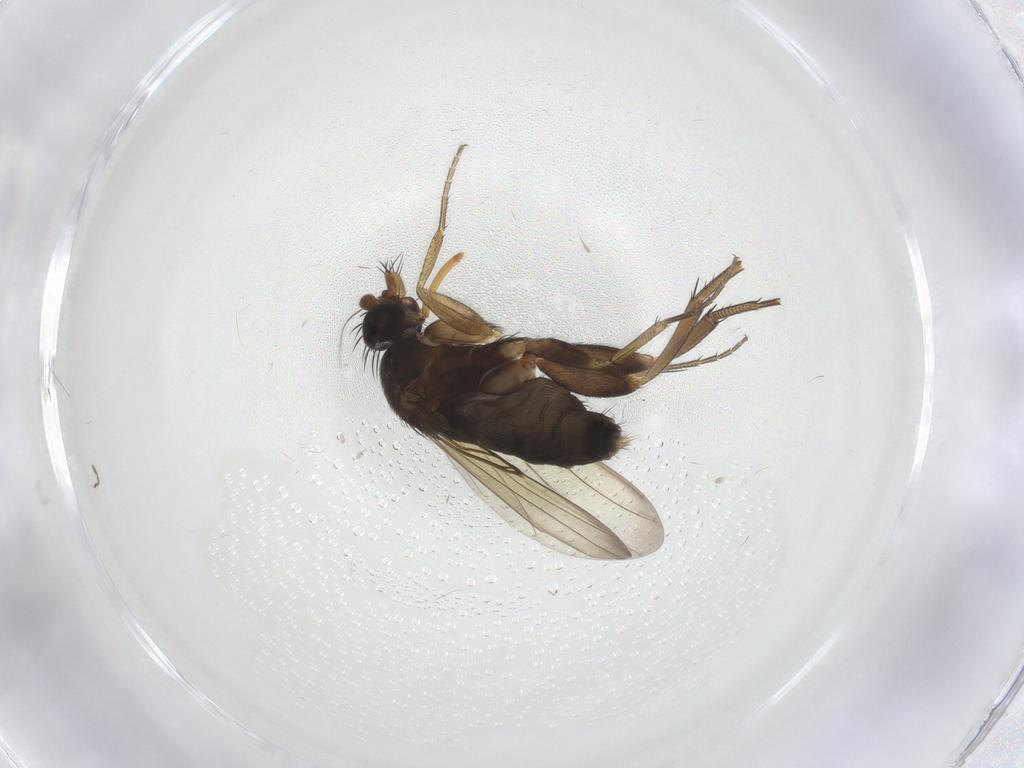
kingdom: Animalia
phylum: Arthropoda
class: Insecta
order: Diptera
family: Phoridae
